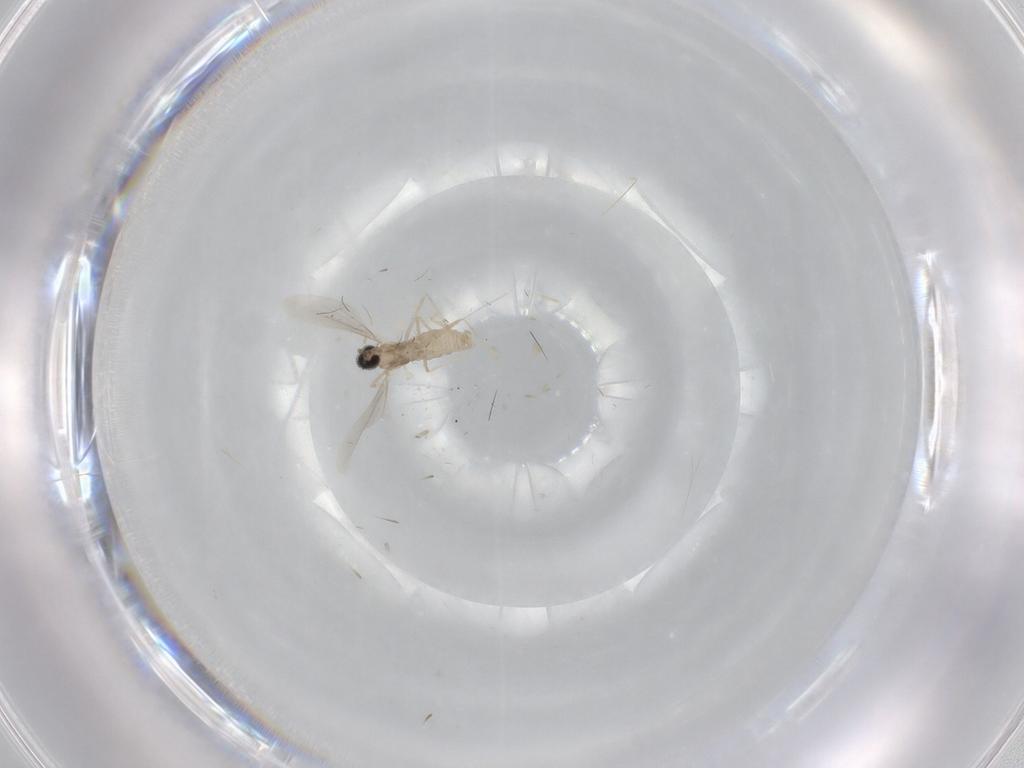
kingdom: Animalia
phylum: Arthropoda
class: Insecta
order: Diptera
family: Cecidomyiidae
